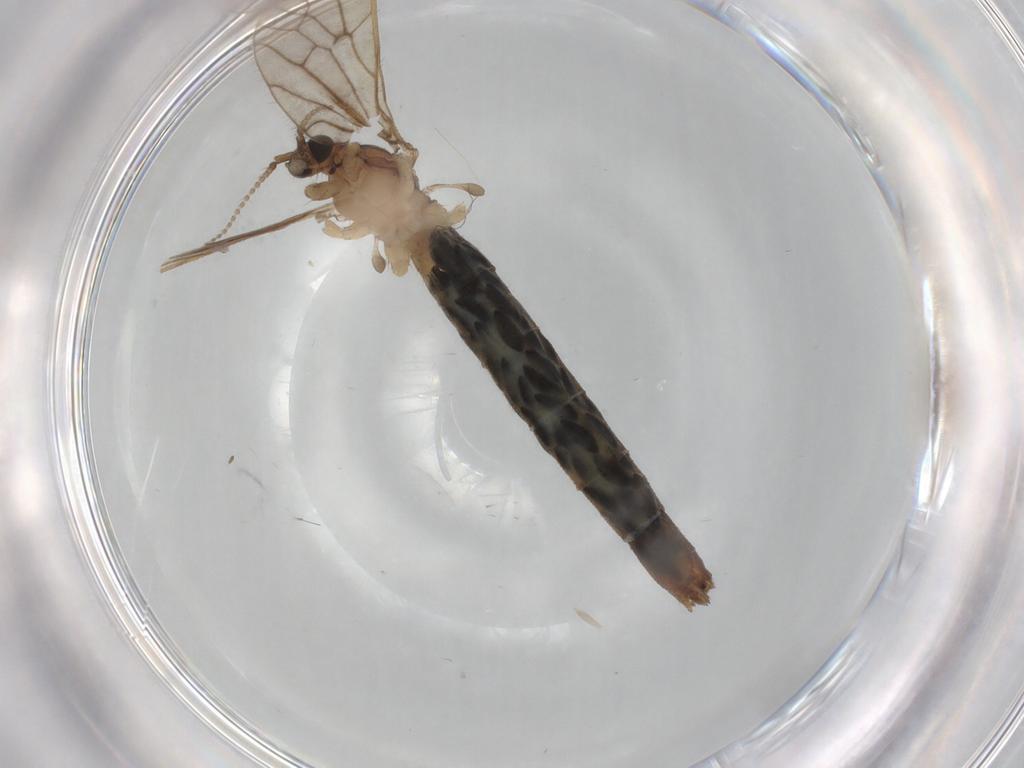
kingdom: Animalia
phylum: Arthropoda
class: Insecta
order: Diptera
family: Limoniidae
